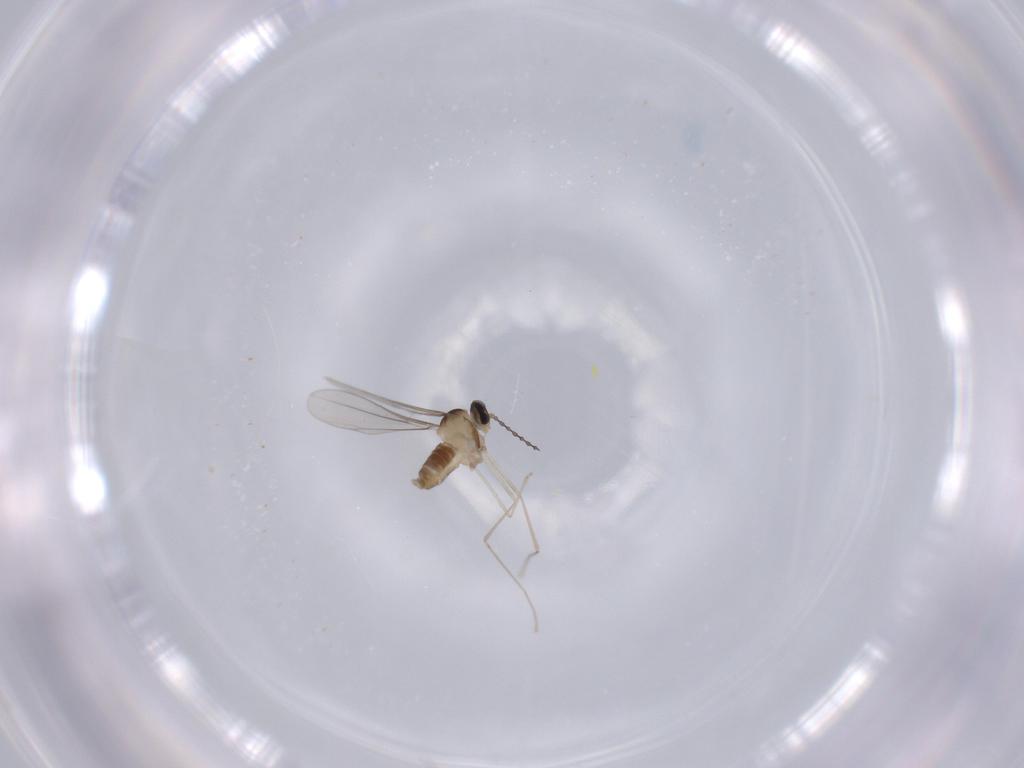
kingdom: Animalia
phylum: Arthropoda
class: Insecta
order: Diptera
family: Cecidomyiidae
